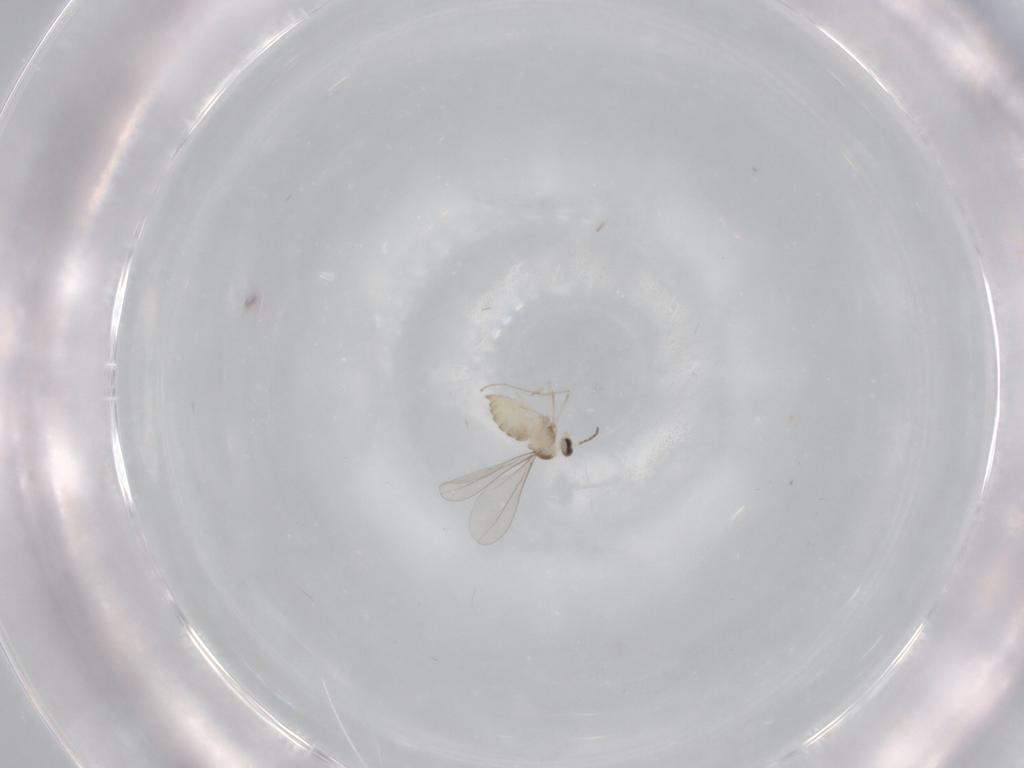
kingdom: Animalia
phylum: Arthropoda
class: Insecta
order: Diptera
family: Cecidomyiidae
